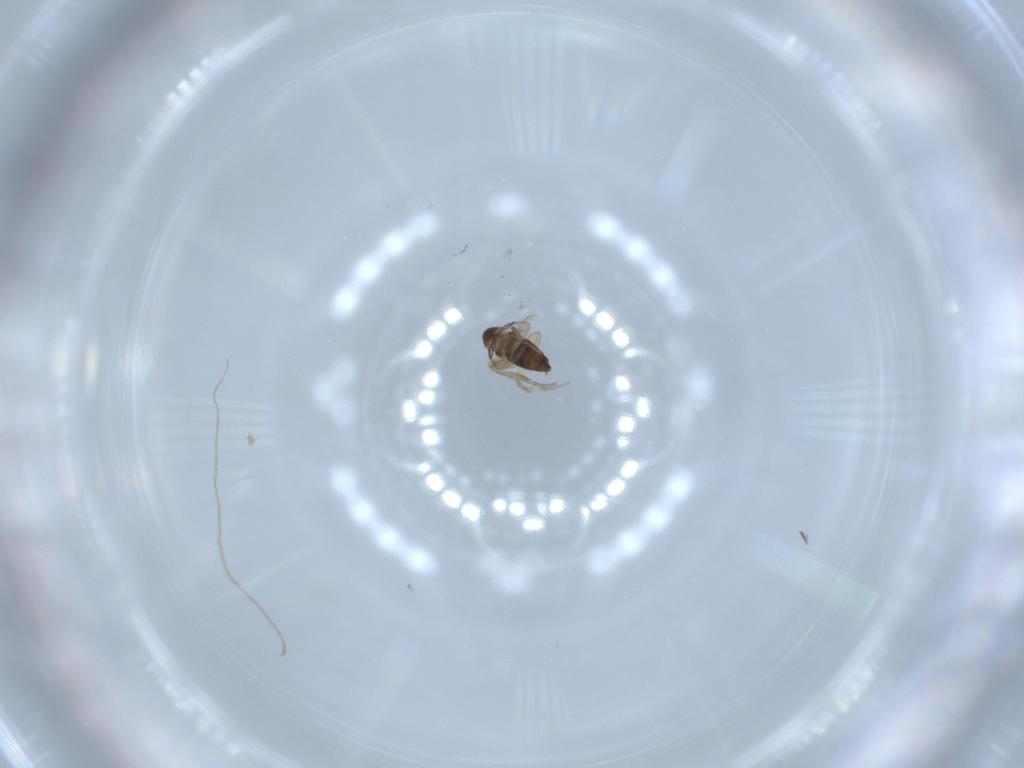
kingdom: Animalia
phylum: Arthropoda
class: Insecta
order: Diptera
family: Phoridae
